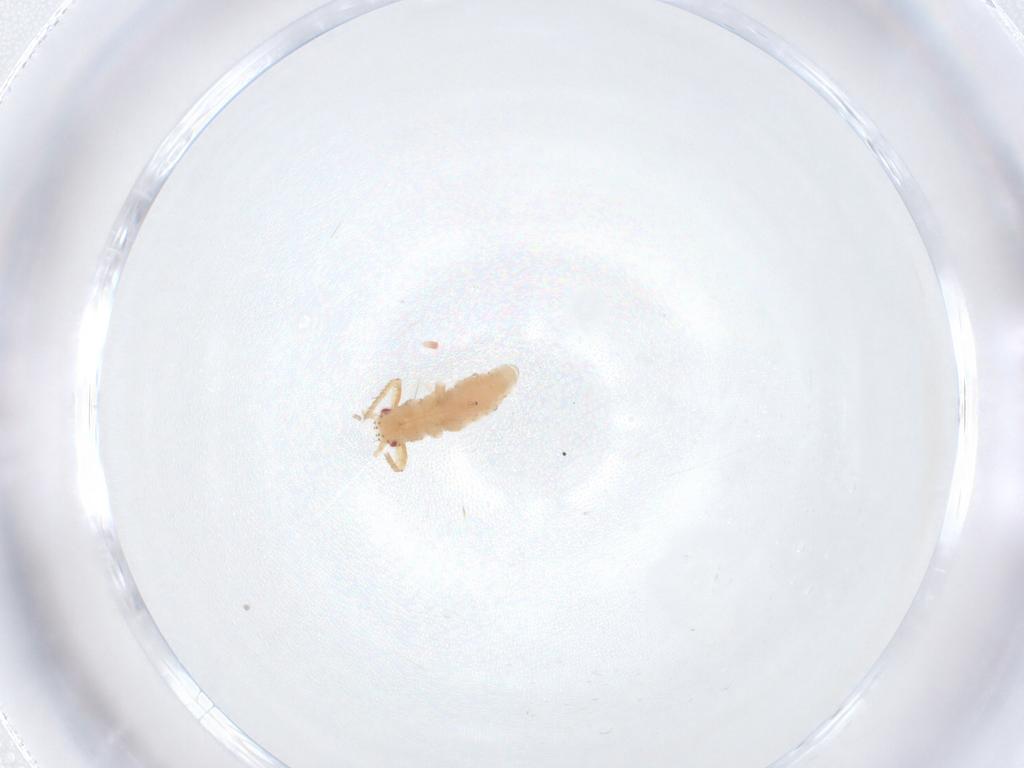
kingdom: Animalia
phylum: Arthropoda
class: Insecta
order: Hemiptera
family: Aphididae
